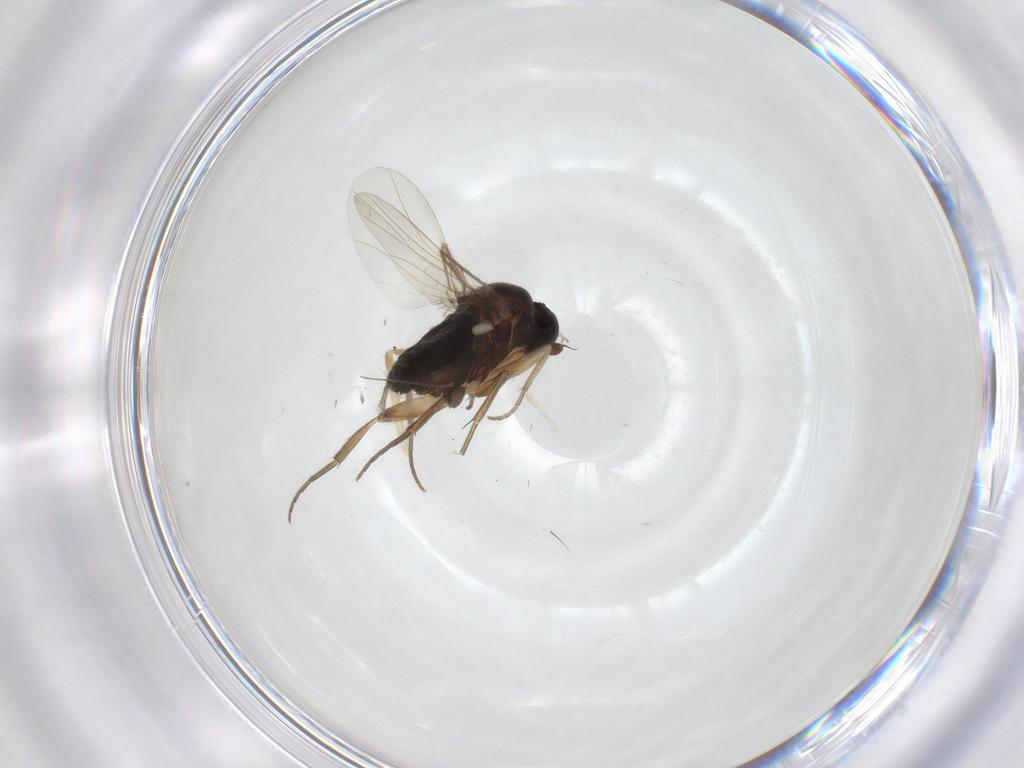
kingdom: Animalia
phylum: Arthropoda
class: Insecta
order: Diptera
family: Phoridae
